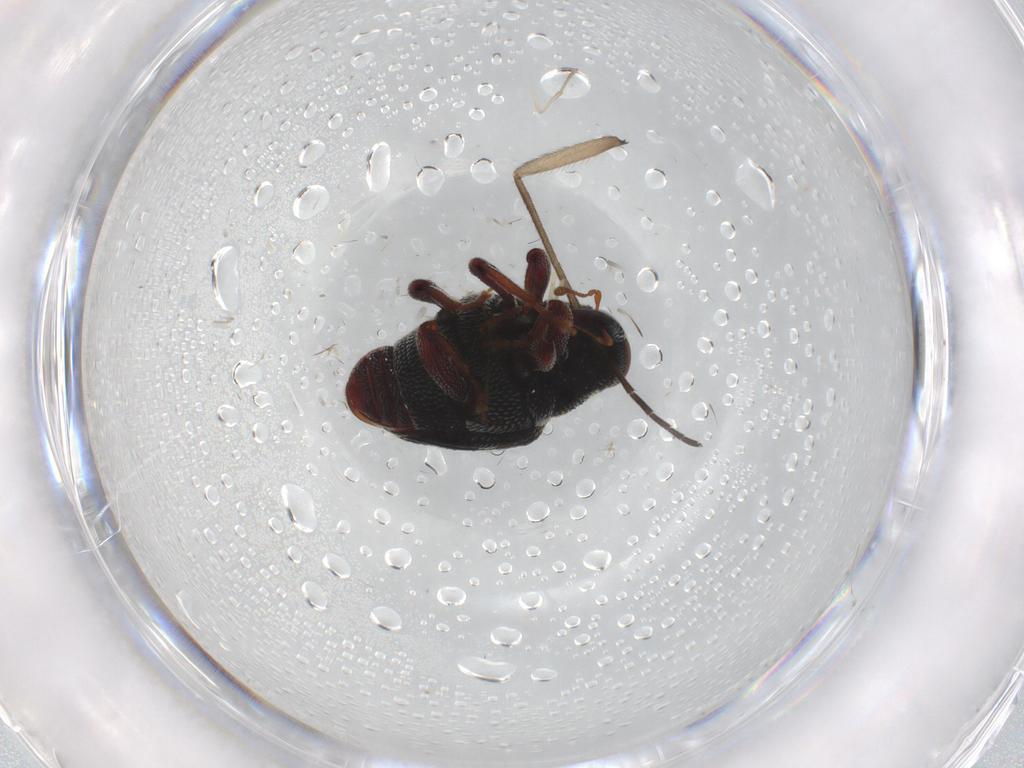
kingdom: Animalia
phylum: Arthropoda
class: Insecta
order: Coleoptera
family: Curculionidae
